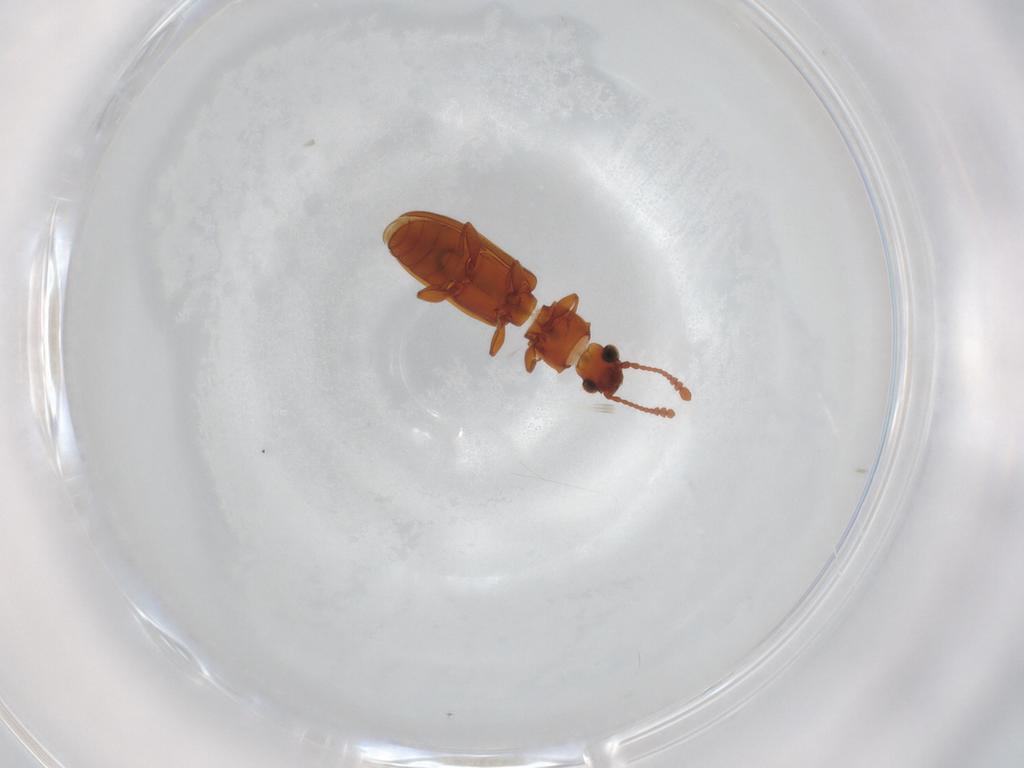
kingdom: Animalia
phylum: Arthropoda
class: Insecta
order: Coleoptera
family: Silvanidae
